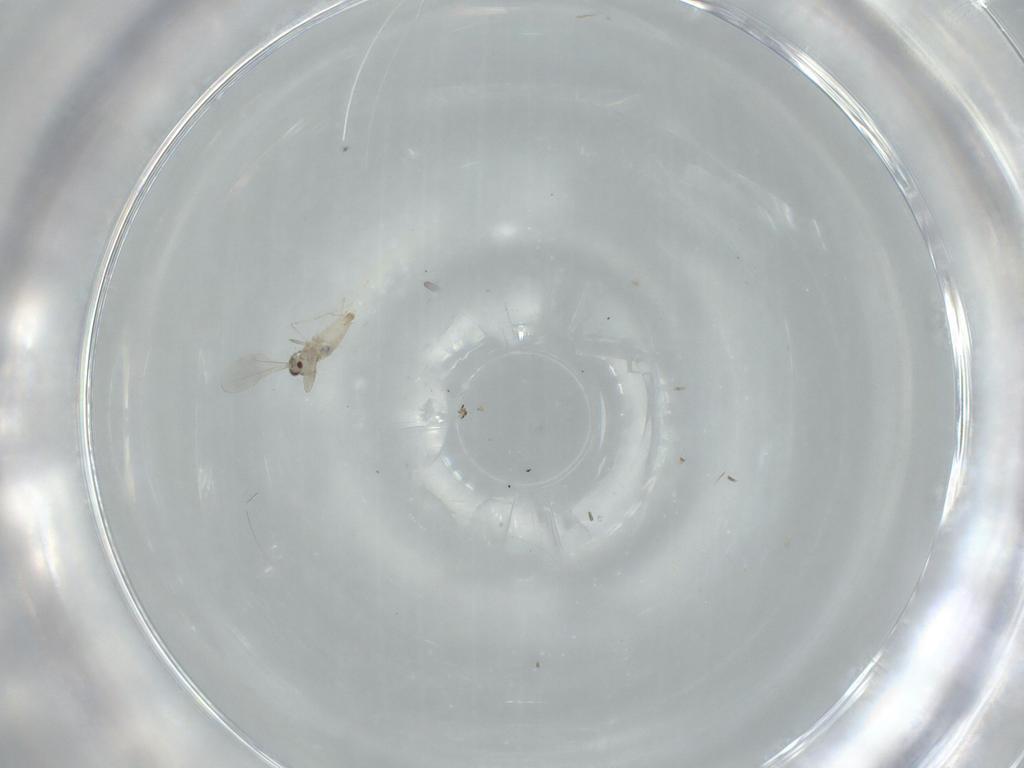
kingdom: Animalia
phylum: Arthropoda
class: Insecta
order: Diptera
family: Cecidomyiidae
